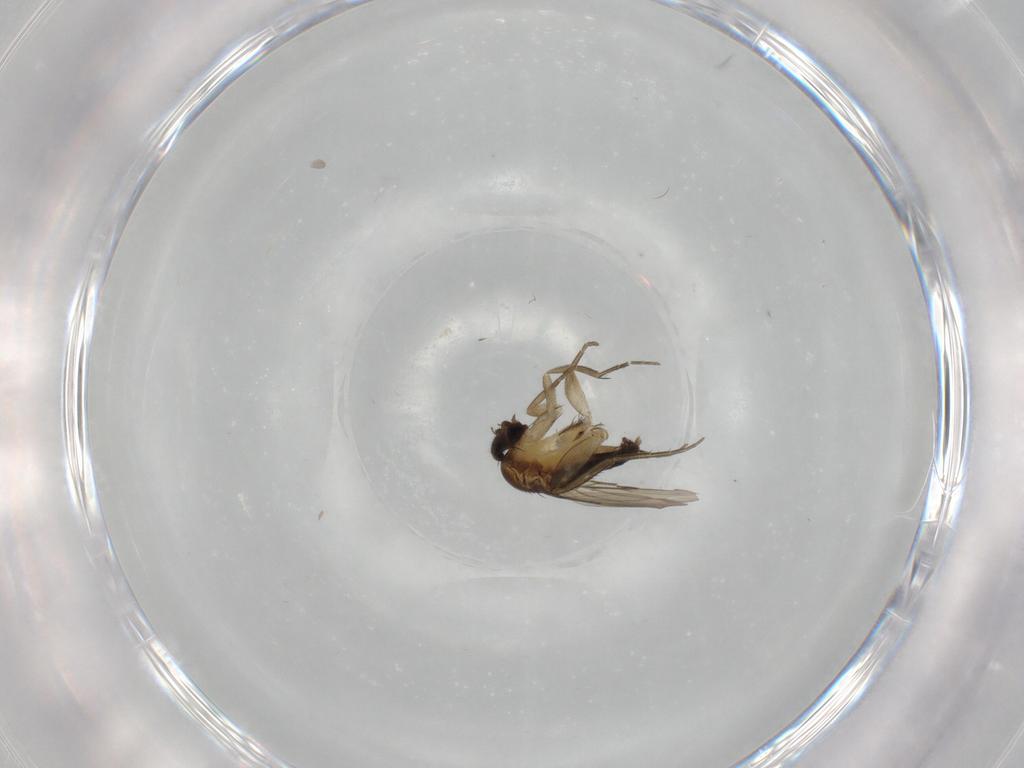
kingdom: Animalia
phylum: Arthropoda
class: Insecta
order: Diptera
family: Phoridae
